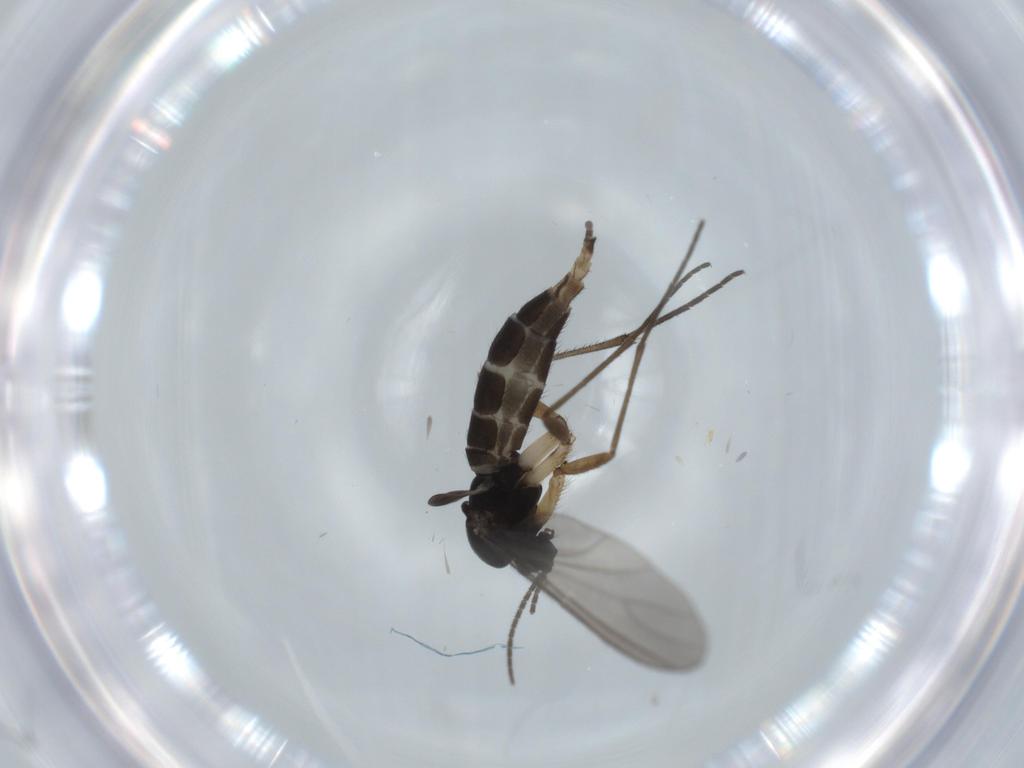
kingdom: Animalia
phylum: Arthropoda
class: Insecta
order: Diptera
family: Sciaridae
